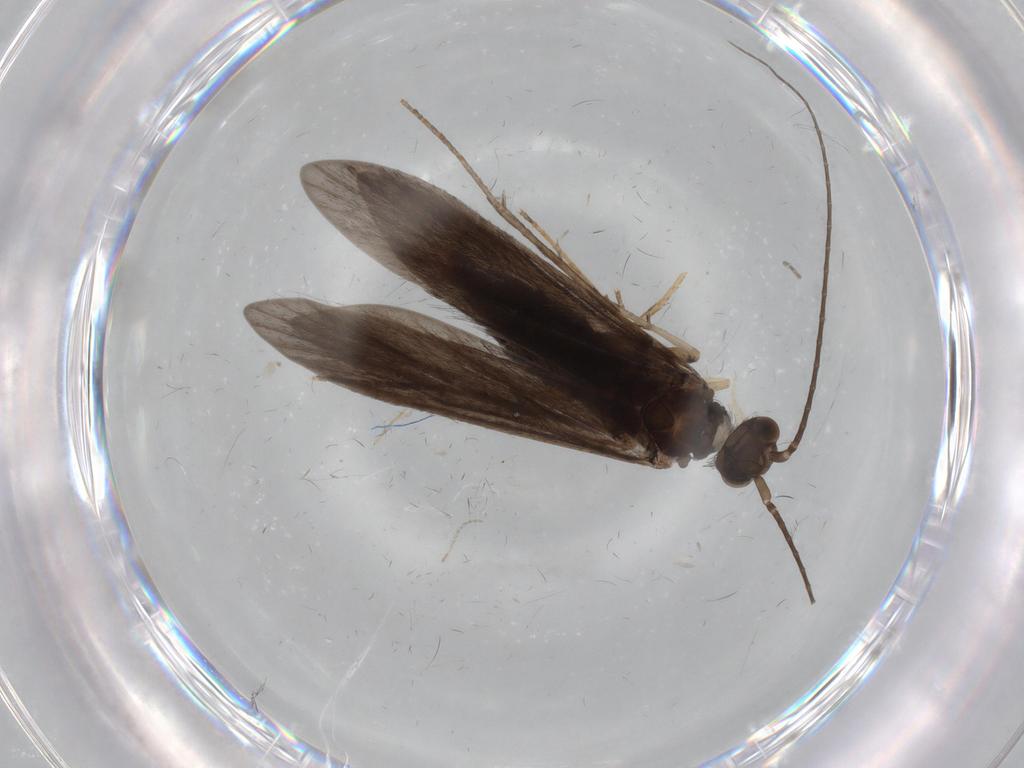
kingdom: Animalia
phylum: Arthropoda
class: Insecta
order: Trichoptera
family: Xiphocentronidae
